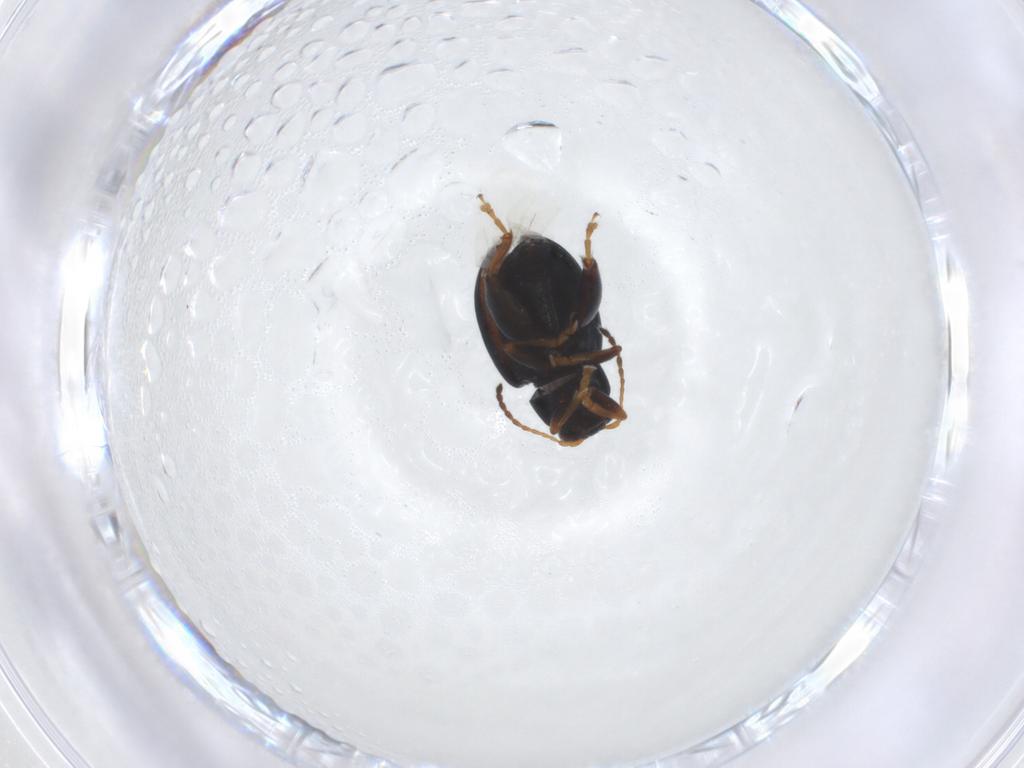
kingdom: Animalia
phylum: Arthropoda
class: Insecta
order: Coleoptera
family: Chrysomelidae
